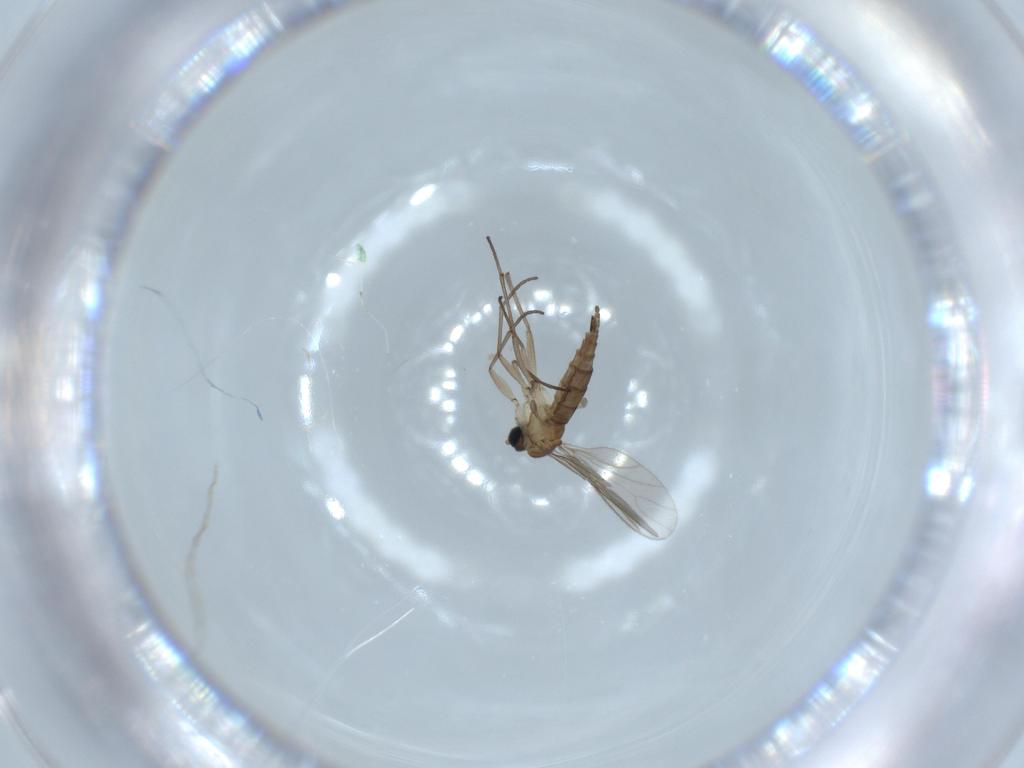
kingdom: Animalia
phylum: Arthropoda
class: Insecta
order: Diptera
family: Sciaridae
